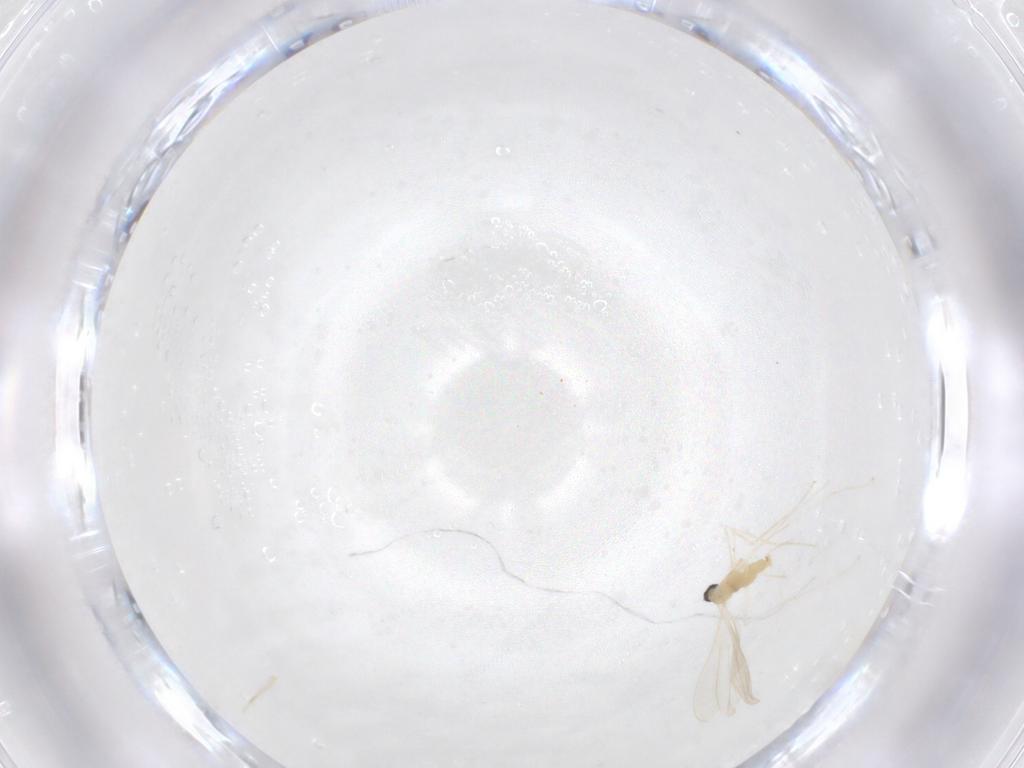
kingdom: Animalia
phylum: Arthropoda
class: Insecta
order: Diptera
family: Cecidomyiidae
